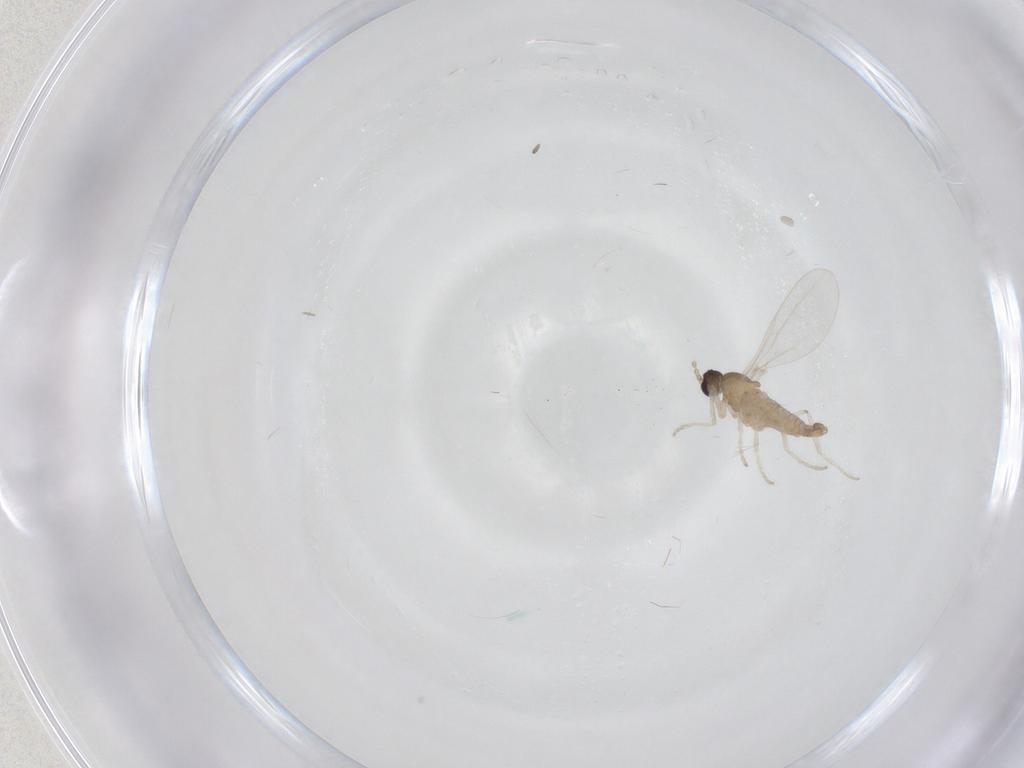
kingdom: Animalia
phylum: Arthropoda
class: Insecta
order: Diptera
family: Cecidomyiidae
